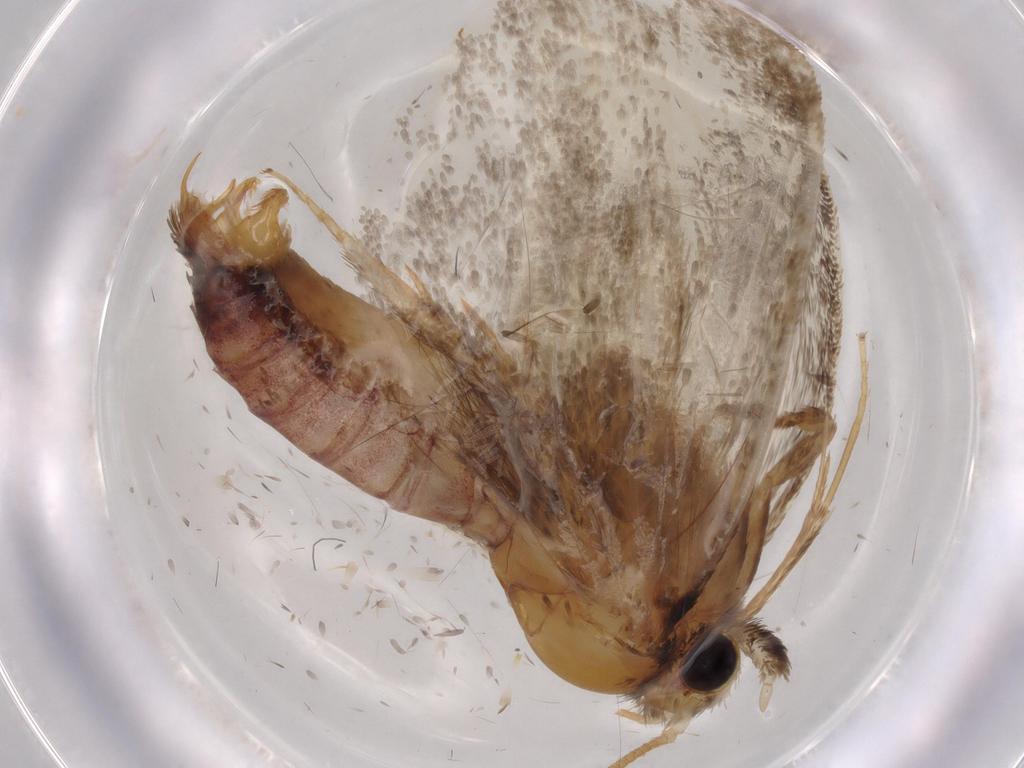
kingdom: Animalia
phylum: Arthropoda
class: Insecta
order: Lepidoptera
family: Tineidae
